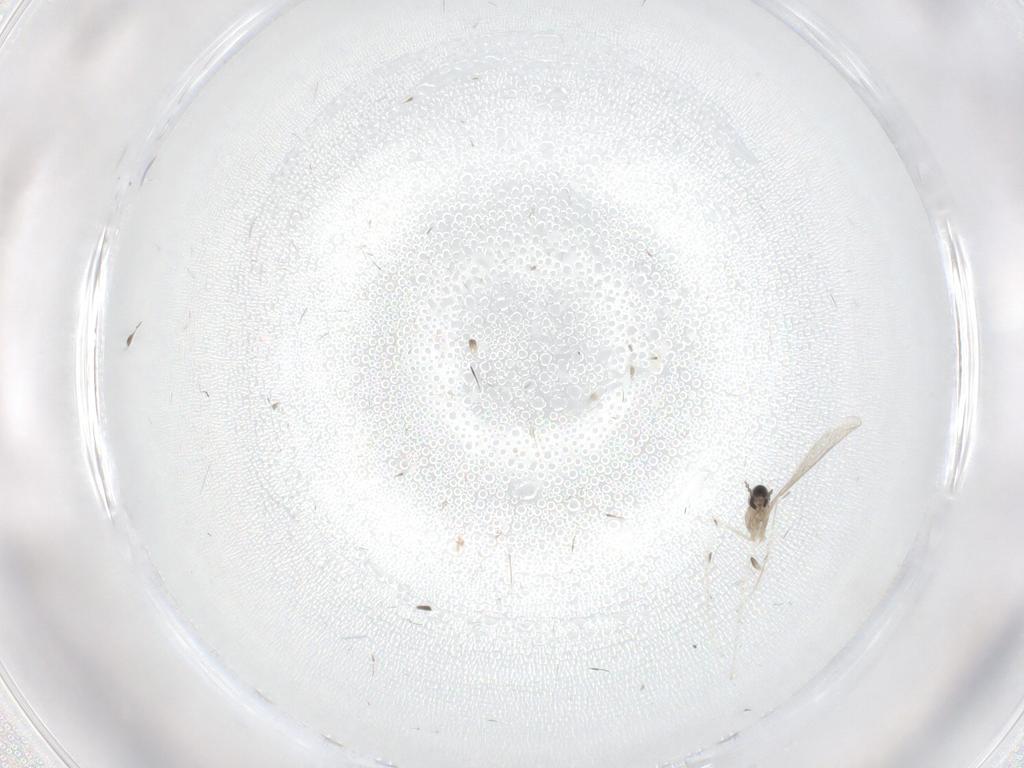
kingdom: Animalia
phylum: Arthropoda
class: Insecta
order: Diptera
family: Cecidomyiidae
